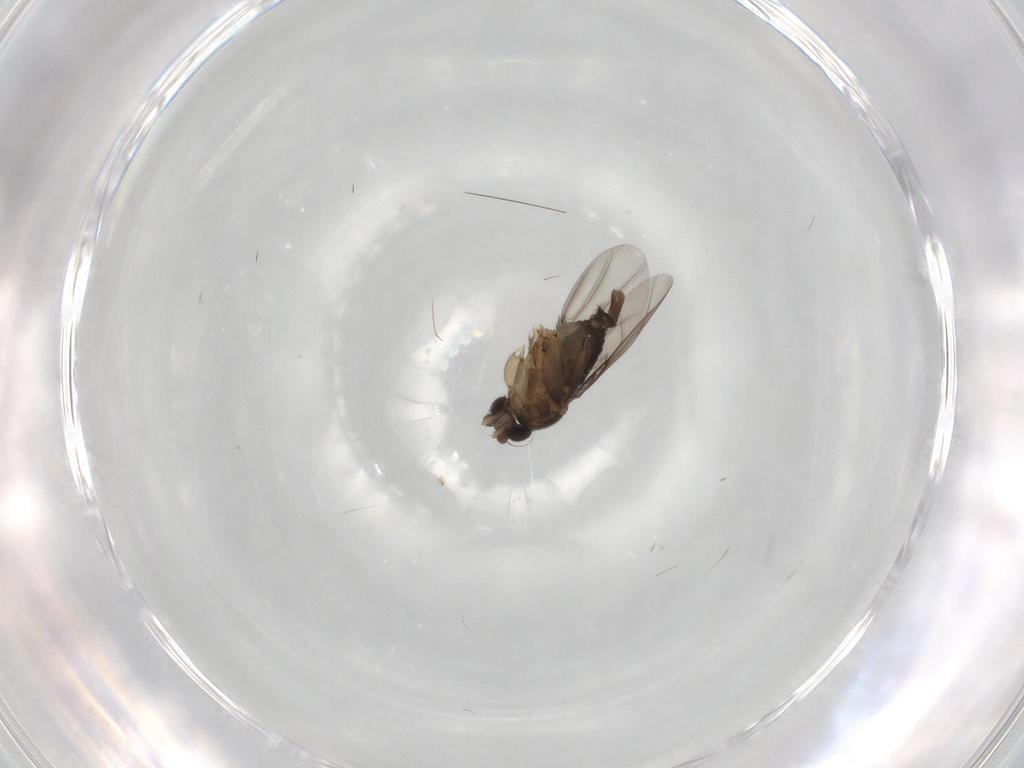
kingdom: Animalia
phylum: Arthropoda
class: Insecta
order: Diptera
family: Phoridae
